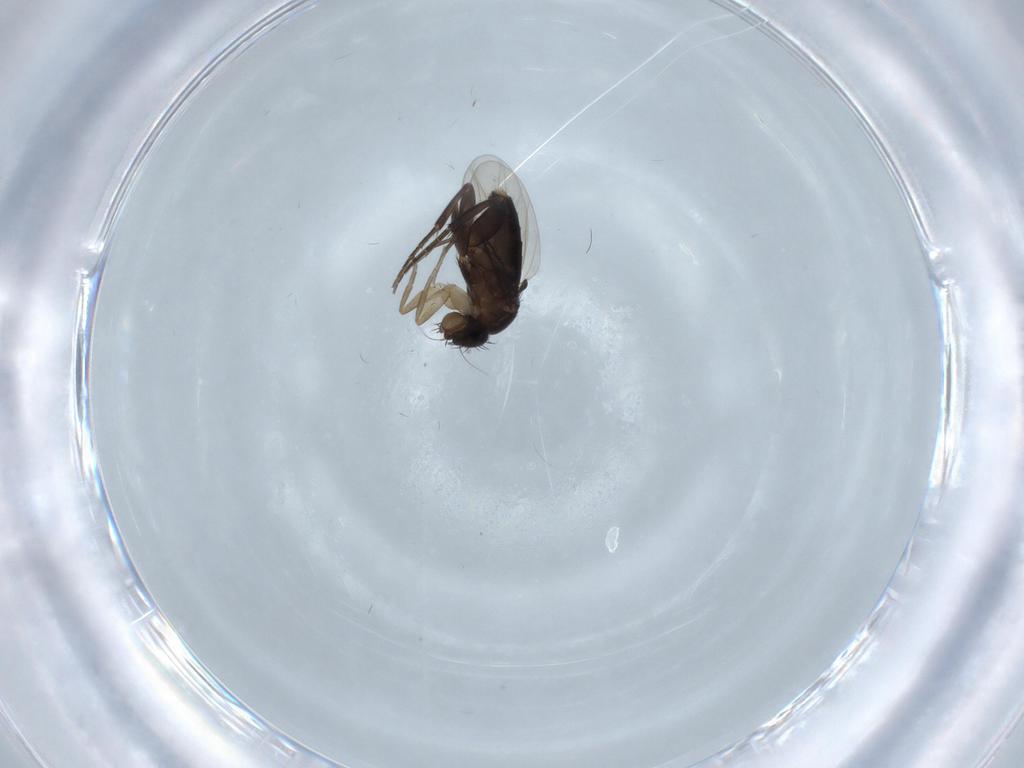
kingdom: Animalia
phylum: Arthropoda
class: Insecta
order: Diptera
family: Phoridae
